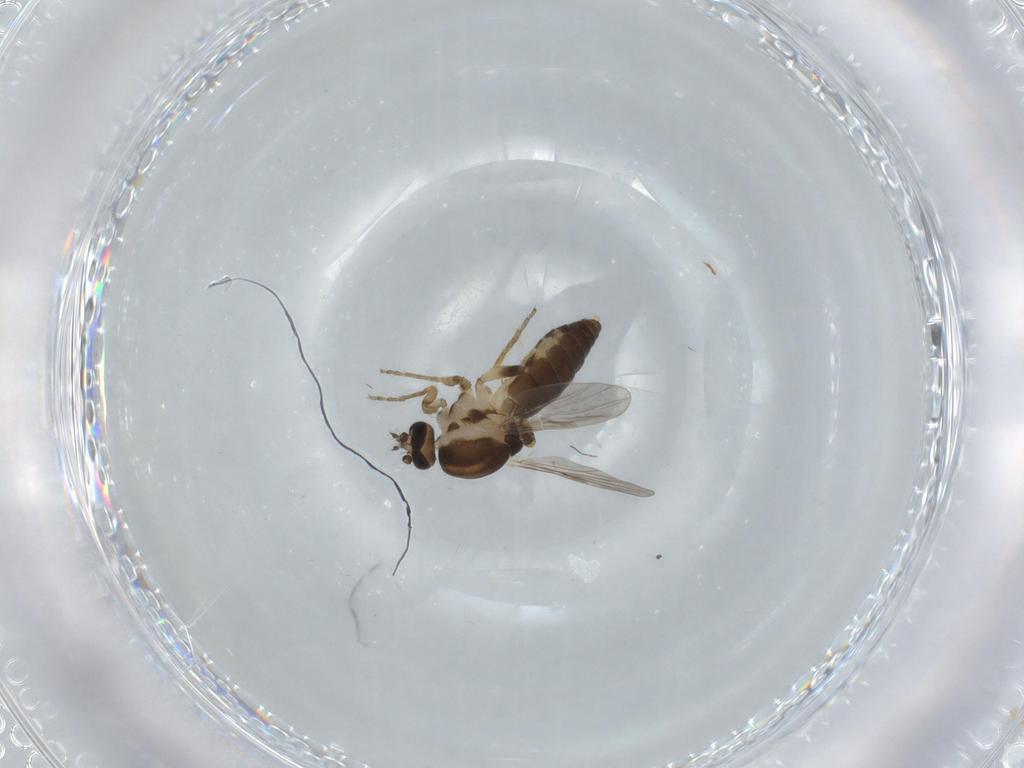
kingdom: Animalia
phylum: Arthropoda
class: Insecta
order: Diptera
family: Ceratopogonidae
